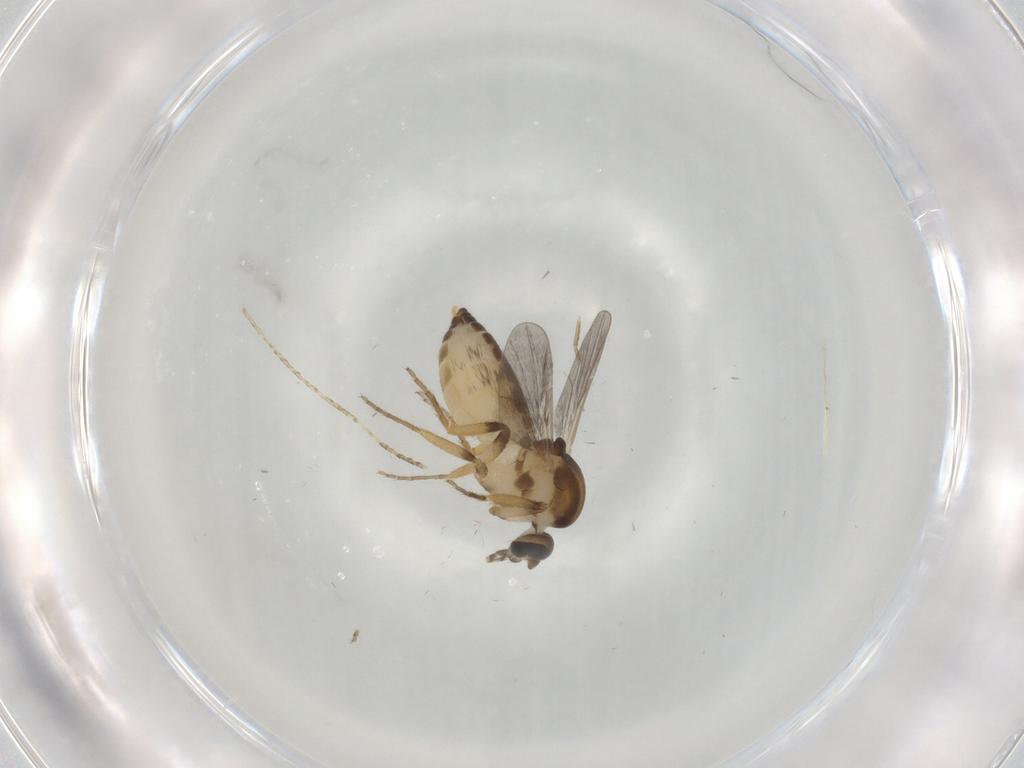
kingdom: Animalia
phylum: Arthropoda
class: Insecta
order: Diptera
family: Ceratopogonidae
